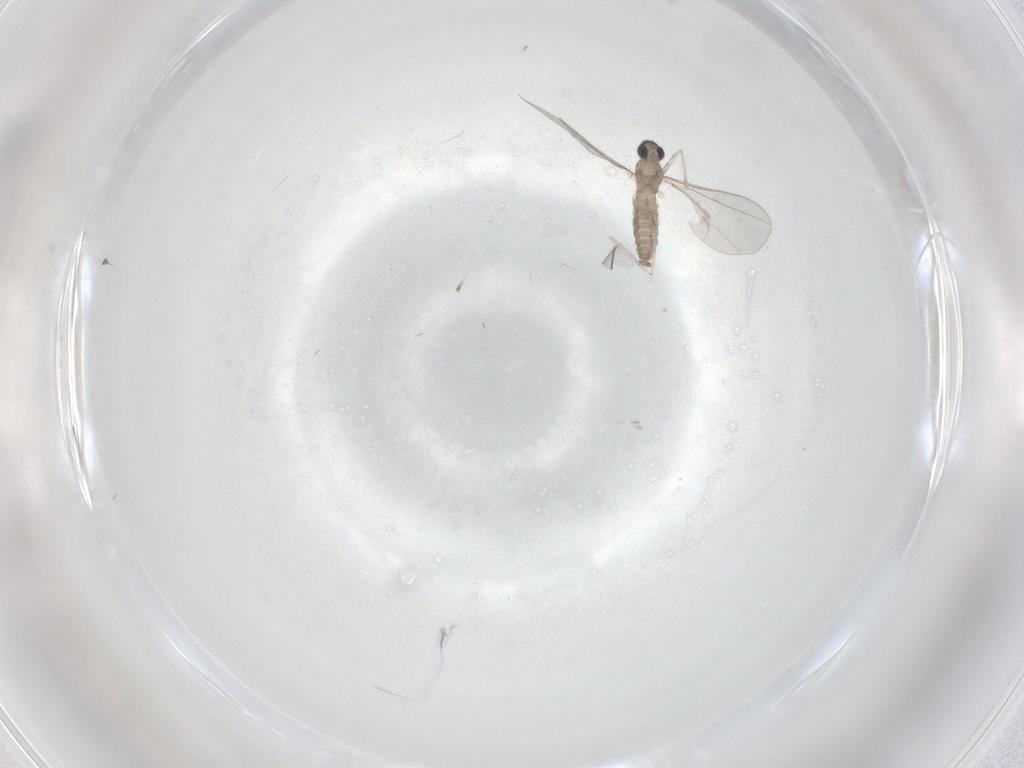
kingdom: Animalia
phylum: Arthropoda
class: Insecta
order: Diptera
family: Cecidomyiidae
